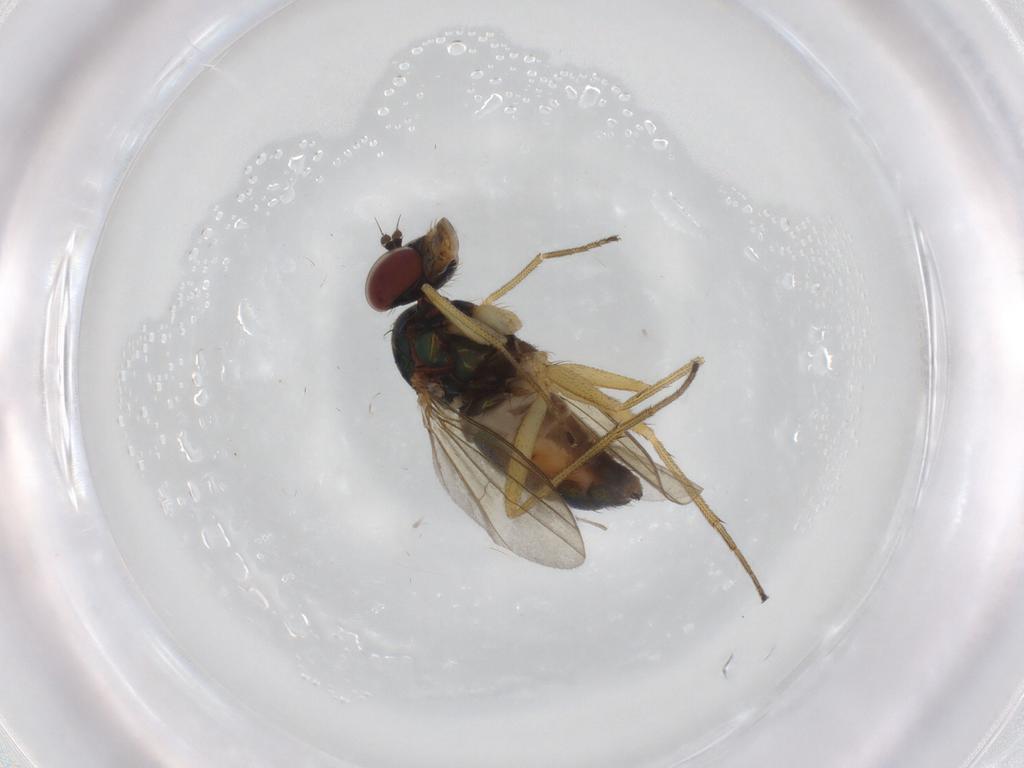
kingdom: Animalia
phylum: Arthropoda
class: Insecta
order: Diptera
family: Dolichopodidae
